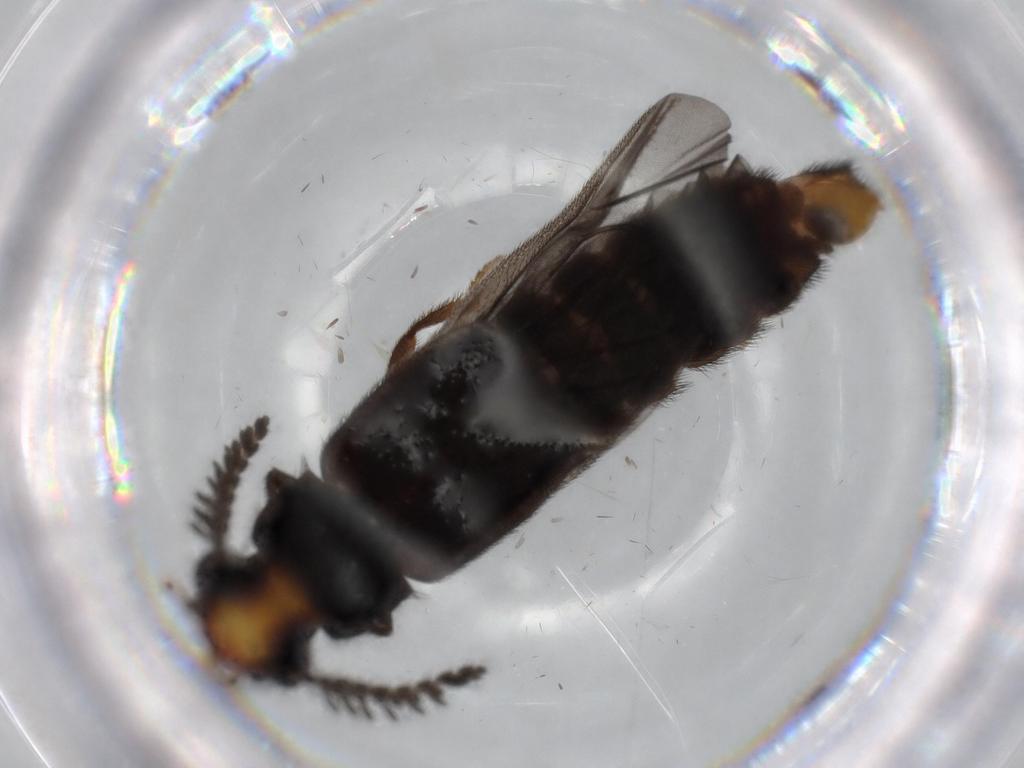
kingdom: Animalia
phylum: Arthropoda
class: Insecta
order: Coleoptera
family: Phengodidae
